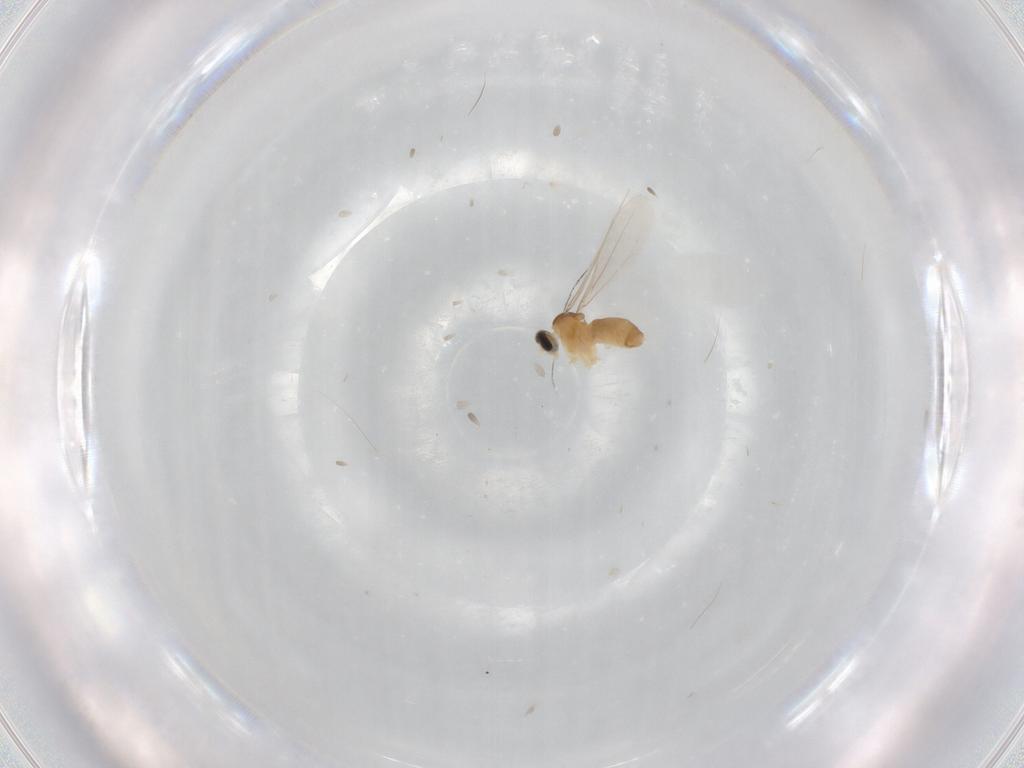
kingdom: Animalia
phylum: Arthropoda
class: Insecta
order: Diptera
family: Cecidomyiidae
